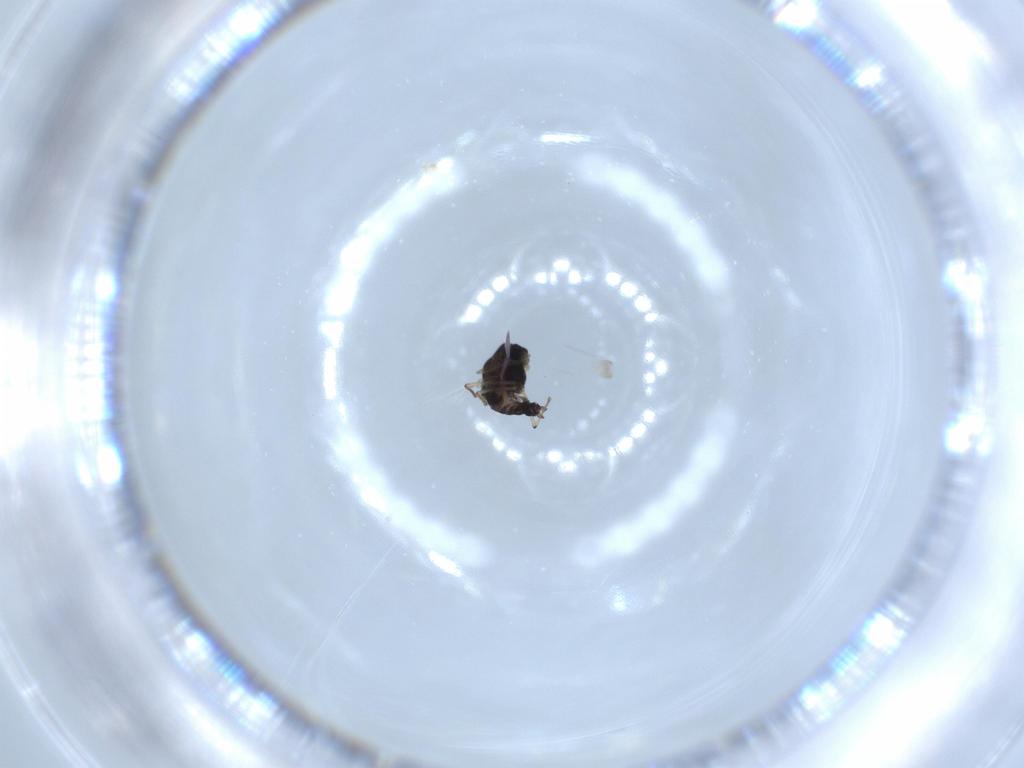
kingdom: Animalia
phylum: Arthropoda
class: Insecta
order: Diptera
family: Chironomidae
